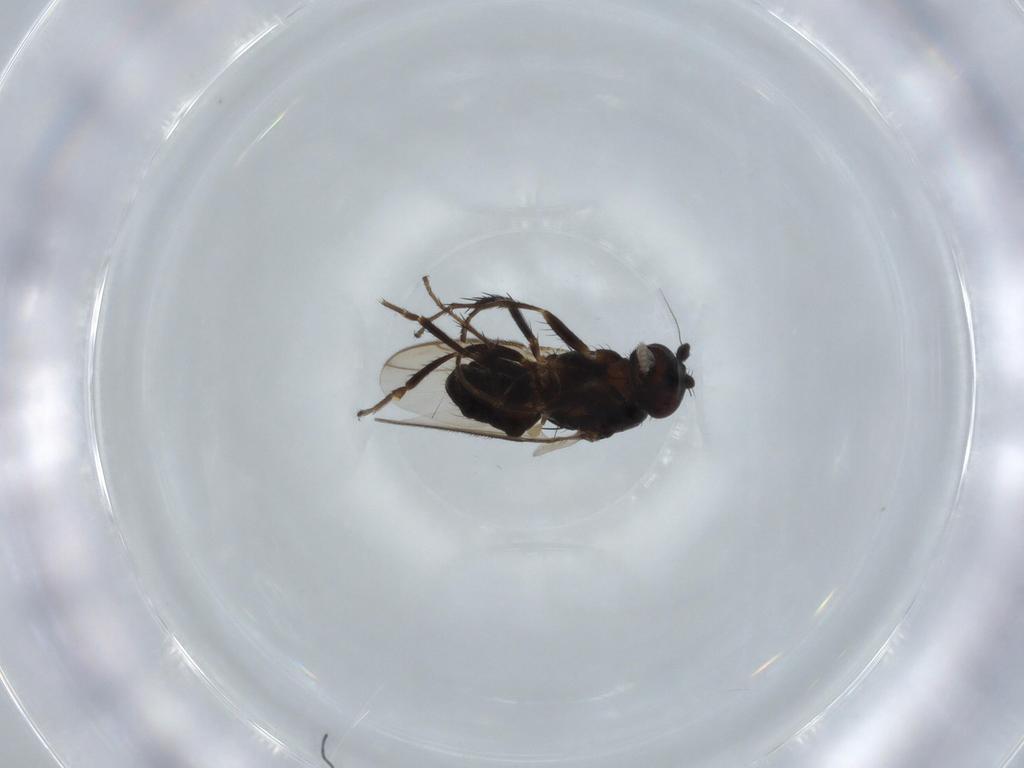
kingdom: Animalia
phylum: Arthropoda
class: Insecta
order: Diptera
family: Sphaeroceridae
